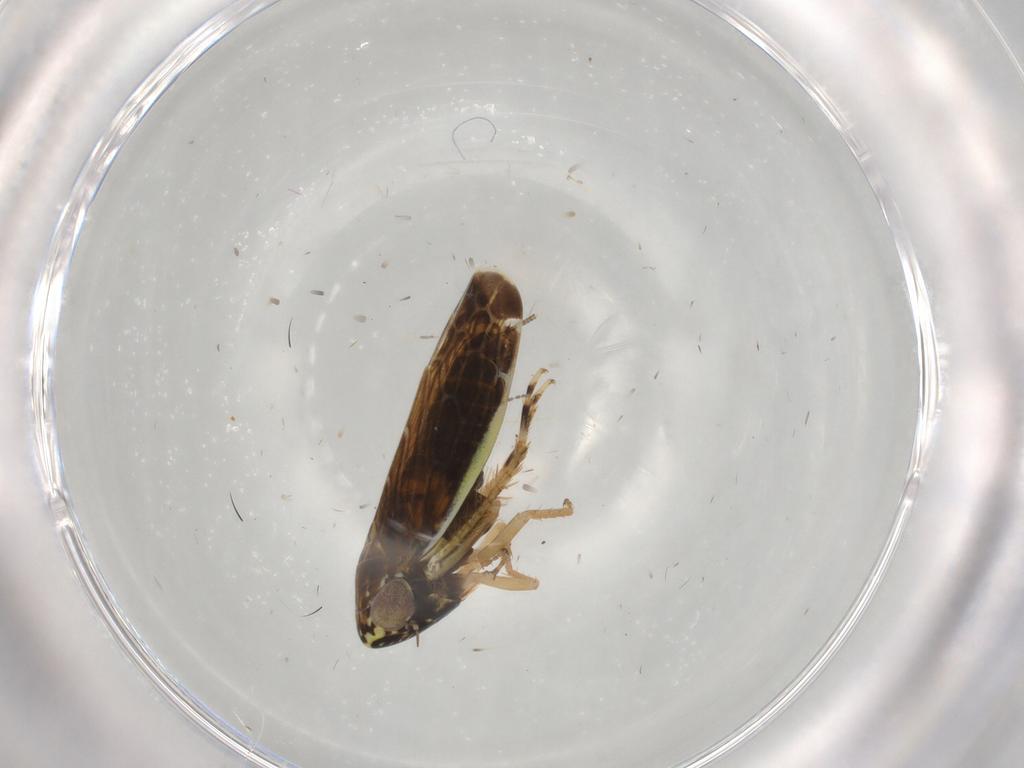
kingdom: Animalia
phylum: Arthropoda
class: Insecta
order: Hemiptera
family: Cicadellidae
